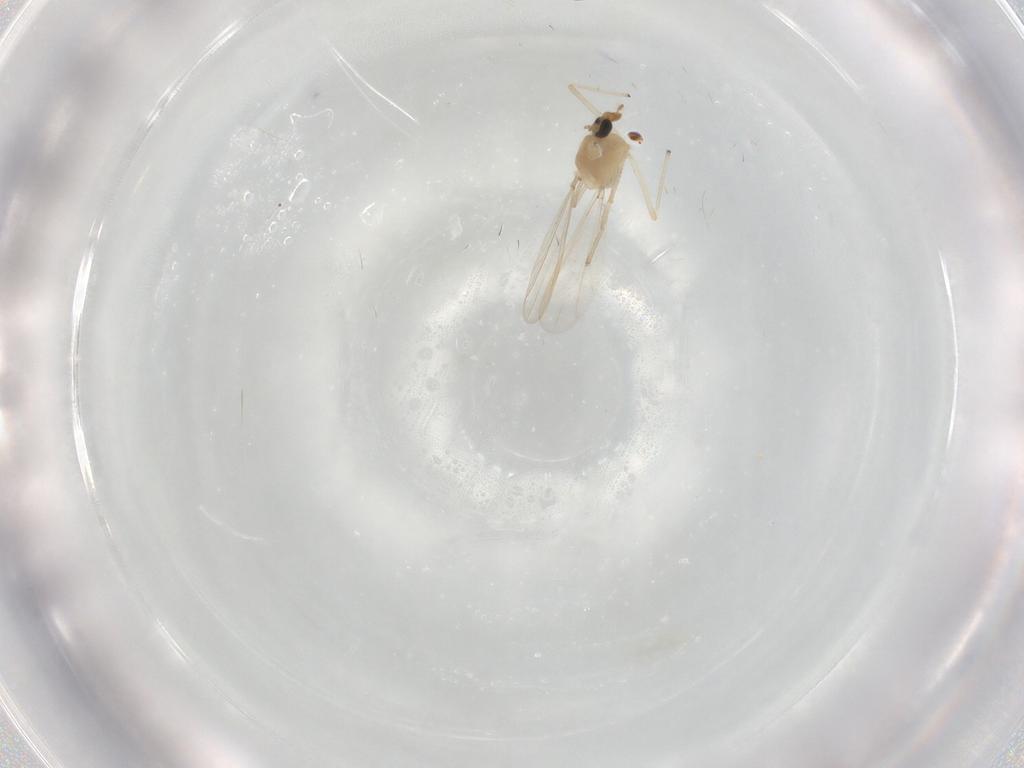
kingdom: Animalia
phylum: Arthropoda
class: Insecta
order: Diptera
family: Chironomidae
